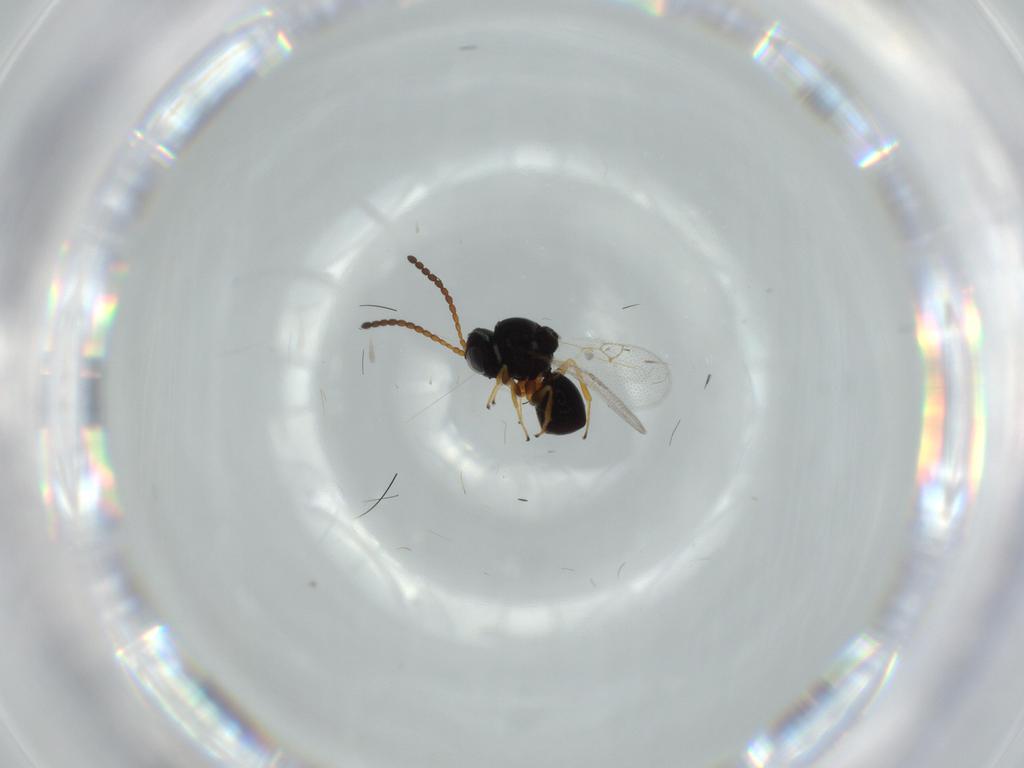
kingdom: Animalia
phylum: Arthropoda
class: Insecta
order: Hymenoptera
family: Figitidae
